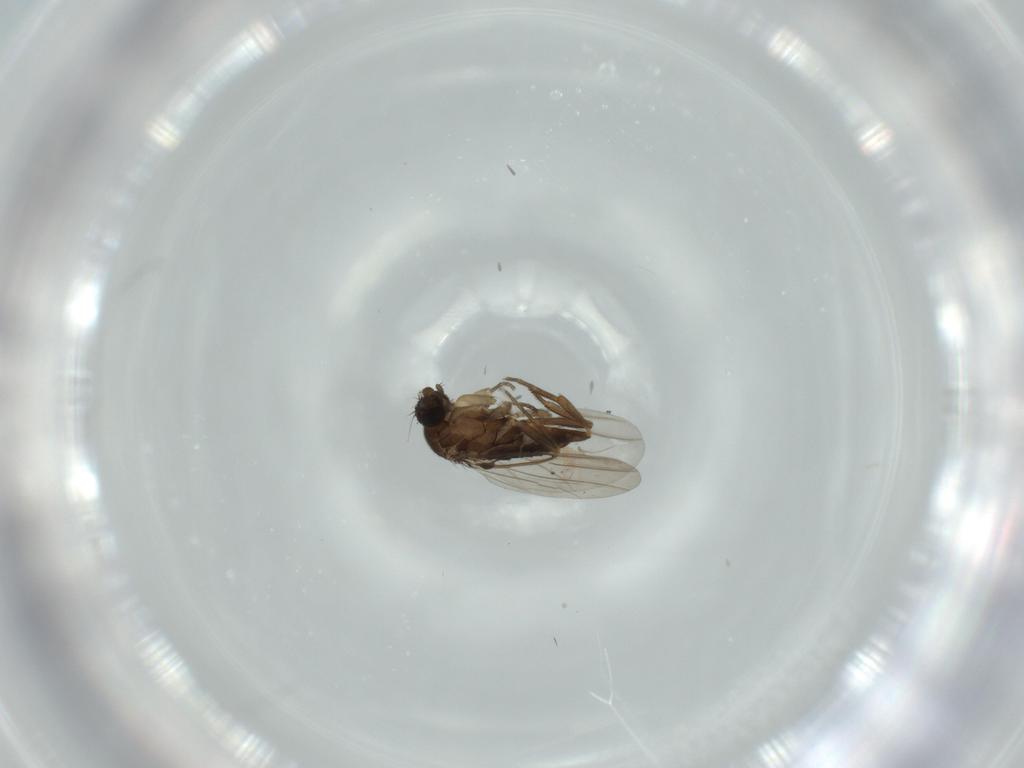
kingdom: Animalia
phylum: Arthropoda
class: Insecta
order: Diptera
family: Phoridae
